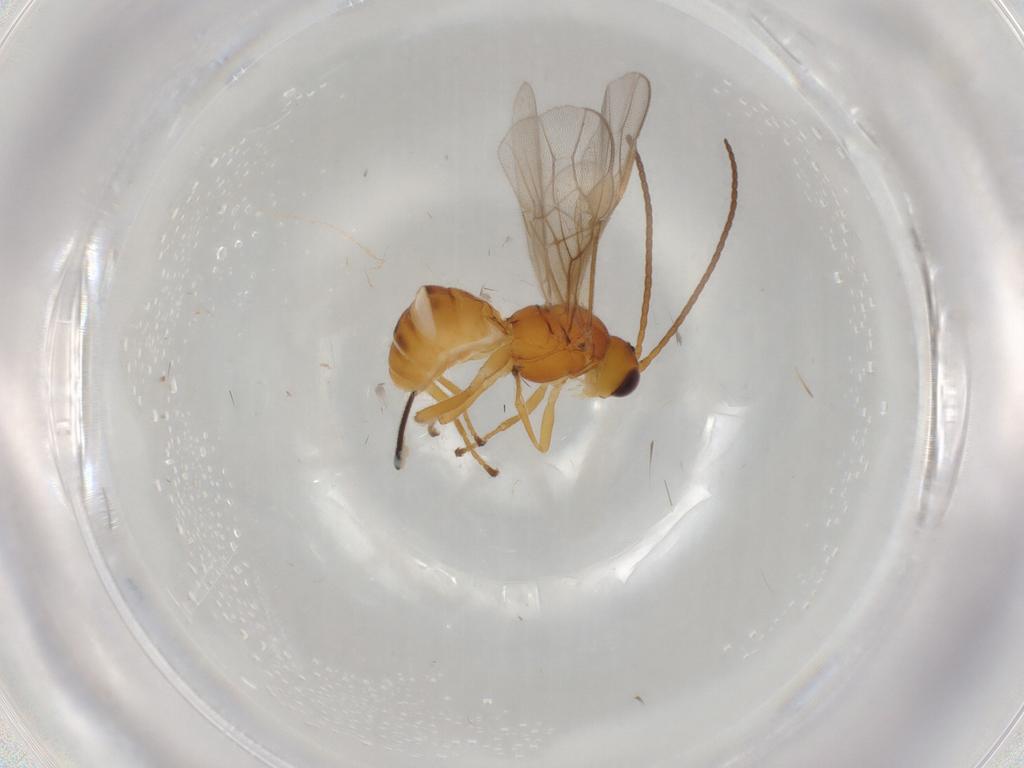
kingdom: Animalia
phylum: Arthropoda
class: Insecta
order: Hymenoptera
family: Braconidae
